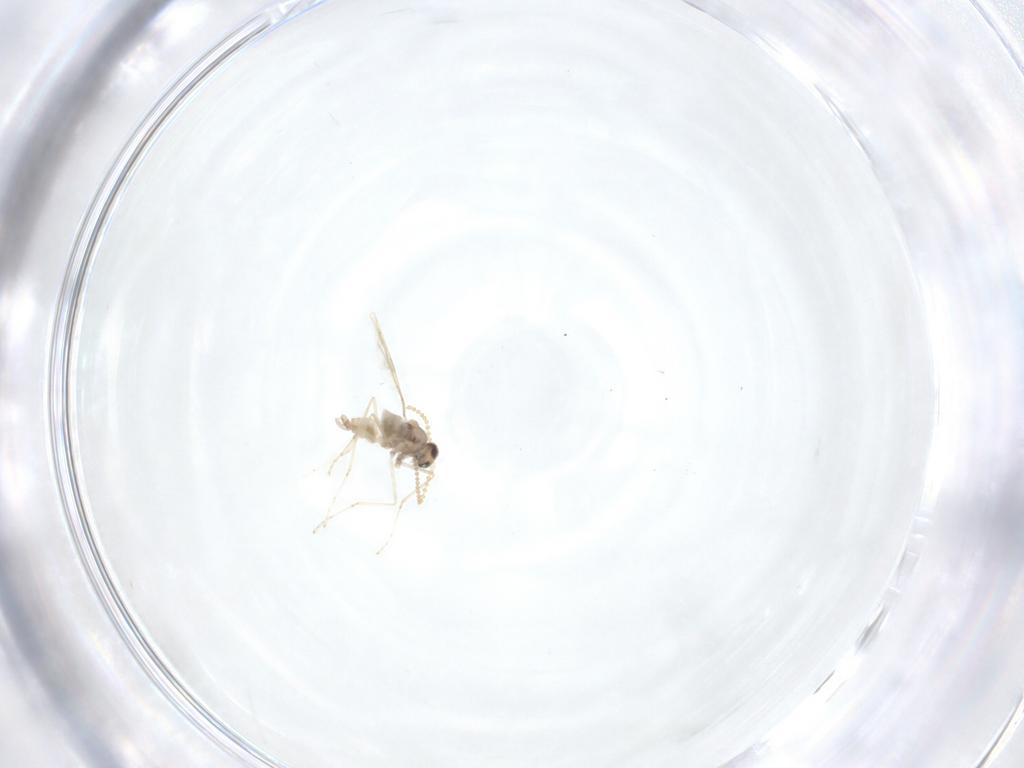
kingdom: Animalia
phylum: Arthropoda
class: Insecta
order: Diptera
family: Cecidomyiidae
